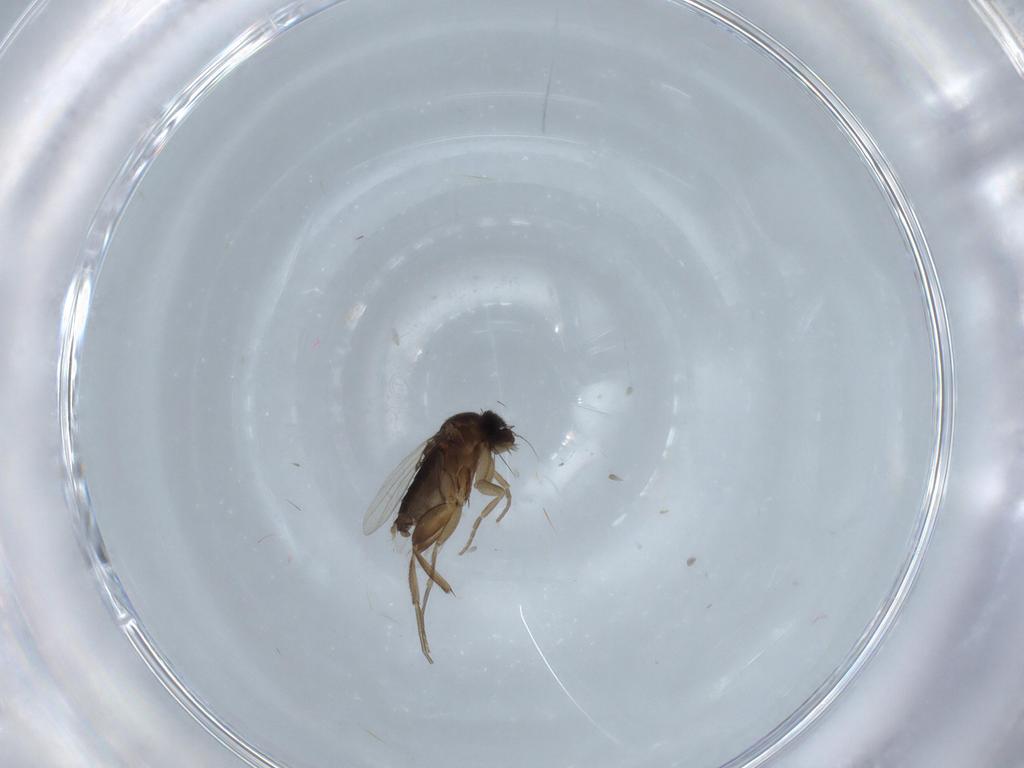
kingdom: Animalia
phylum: Arthropoda
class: Insecta
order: Diptera
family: Phoridae
